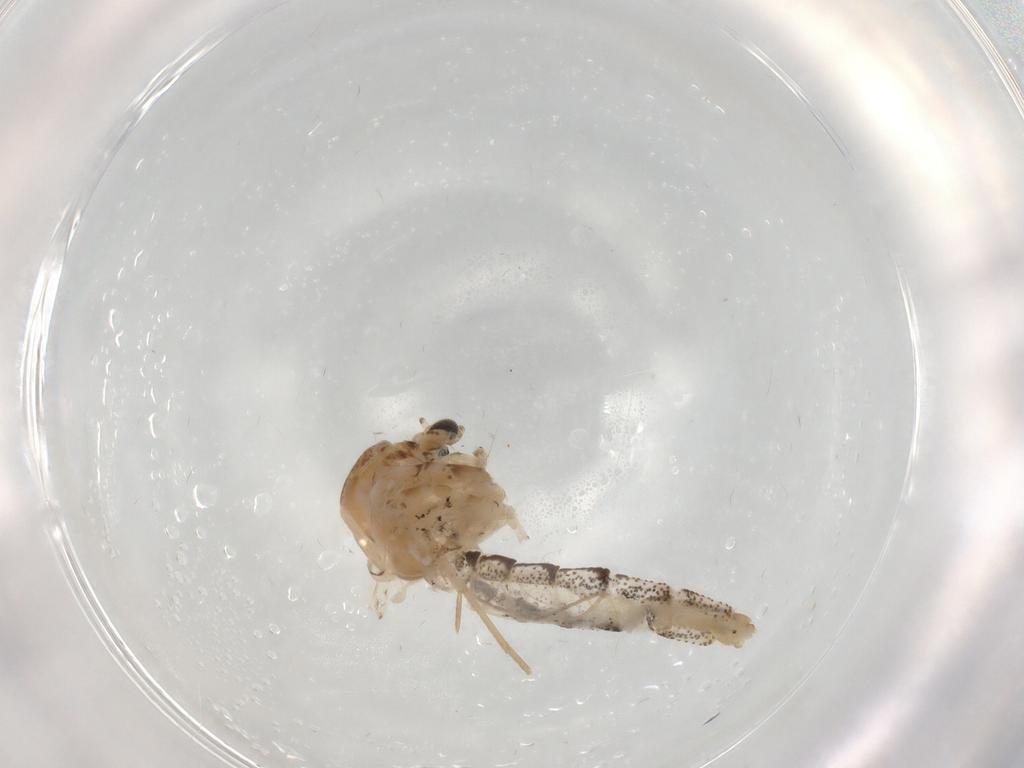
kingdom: Animalia
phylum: Arthropoda
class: Insecta
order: Diptera
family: Chaoboridae
